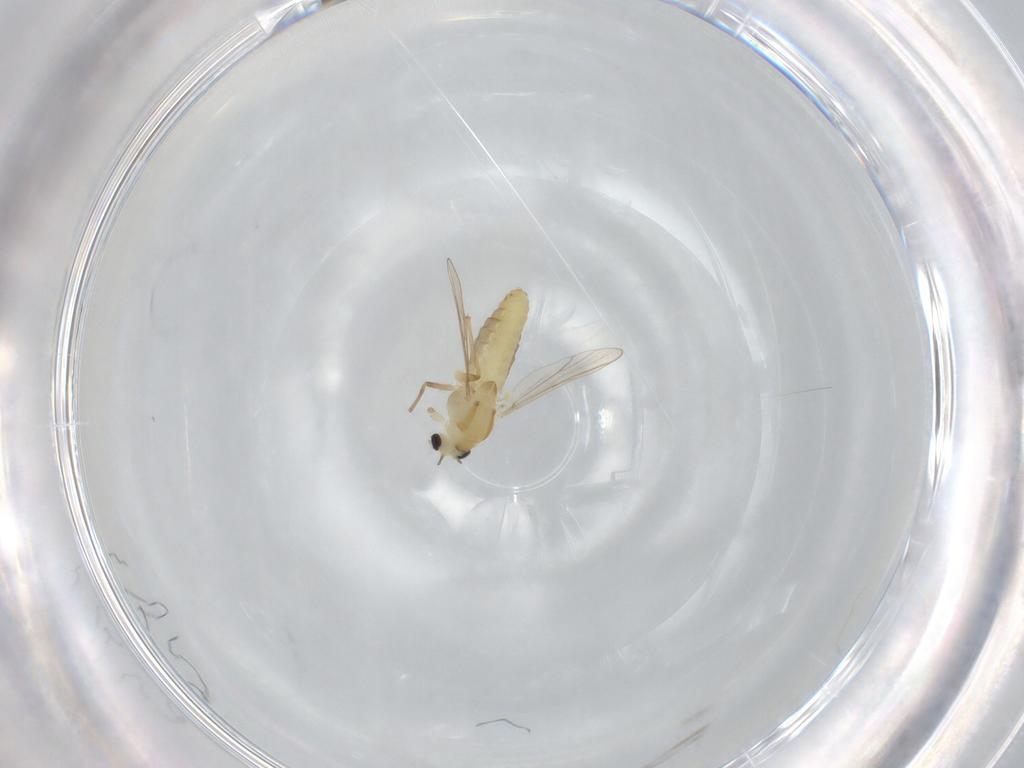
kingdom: Animalia
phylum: Arthropoda
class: Insecta
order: Diptera
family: Chironomidae
